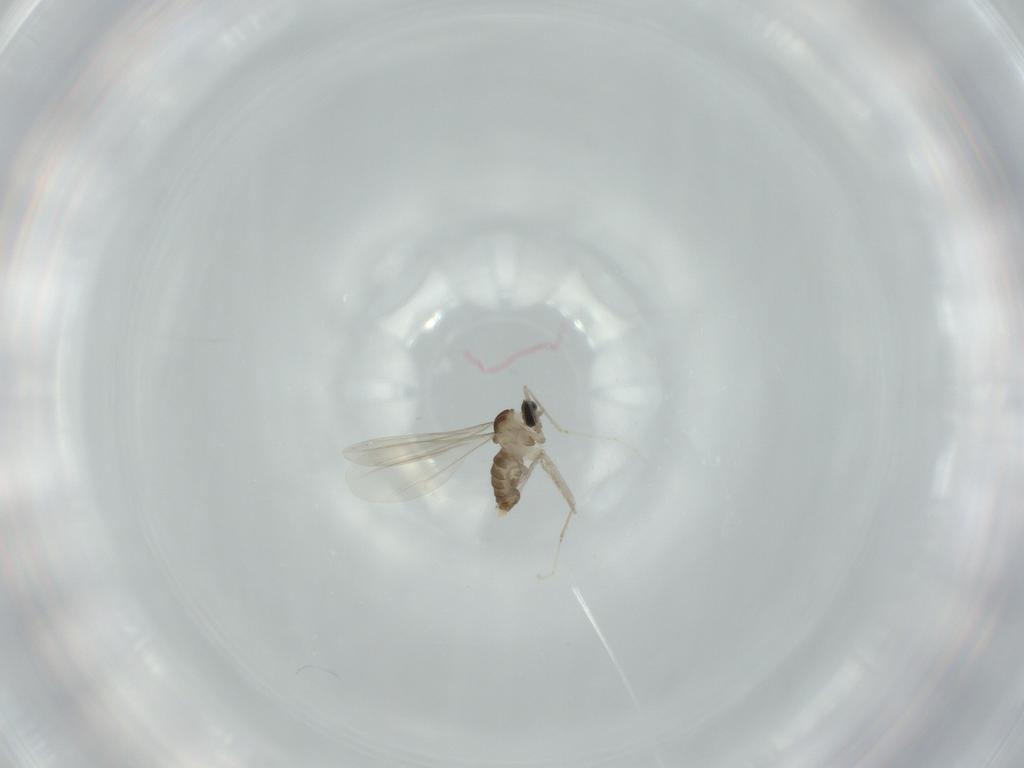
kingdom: Animalia
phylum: Arthropoda
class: Insecta
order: Diptera
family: Cecidomyiidae
